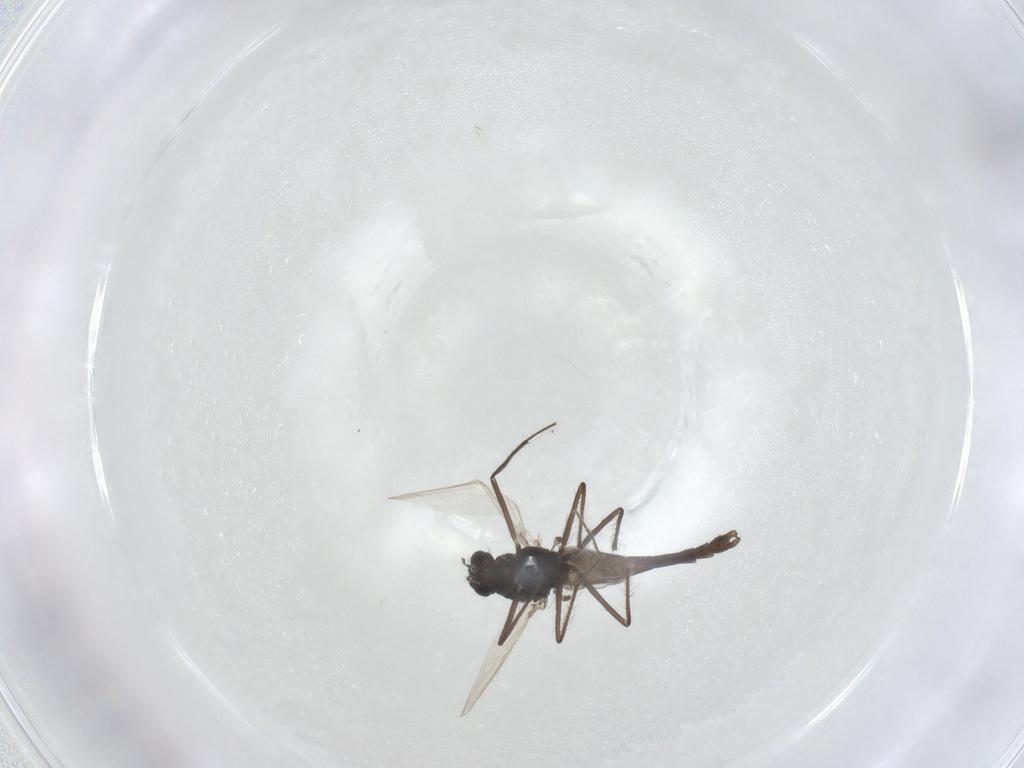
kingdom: Animalia
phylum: Arthropoda
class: Insecta
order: Diptera
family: Chironomidae
